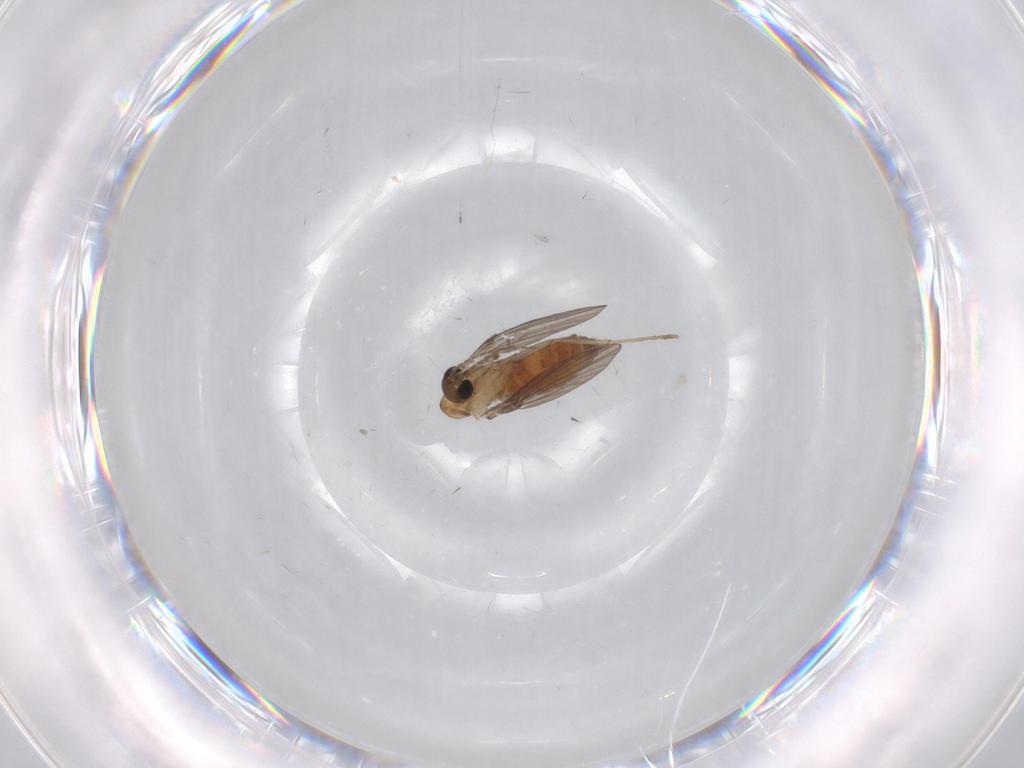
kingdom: Animalia
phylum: Arthropoda
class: Insecta
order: Diptera
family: Psychodidae
